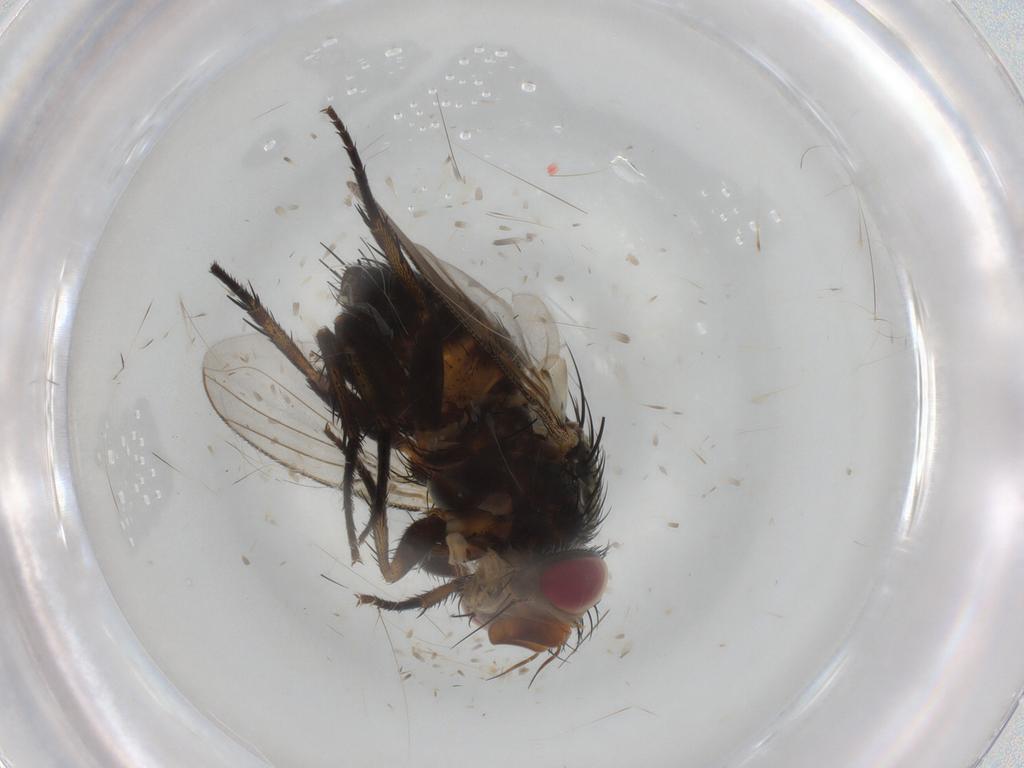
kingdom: Animalia
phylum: Arthropoda
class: Insecta
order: Diptera
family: Muscidae
